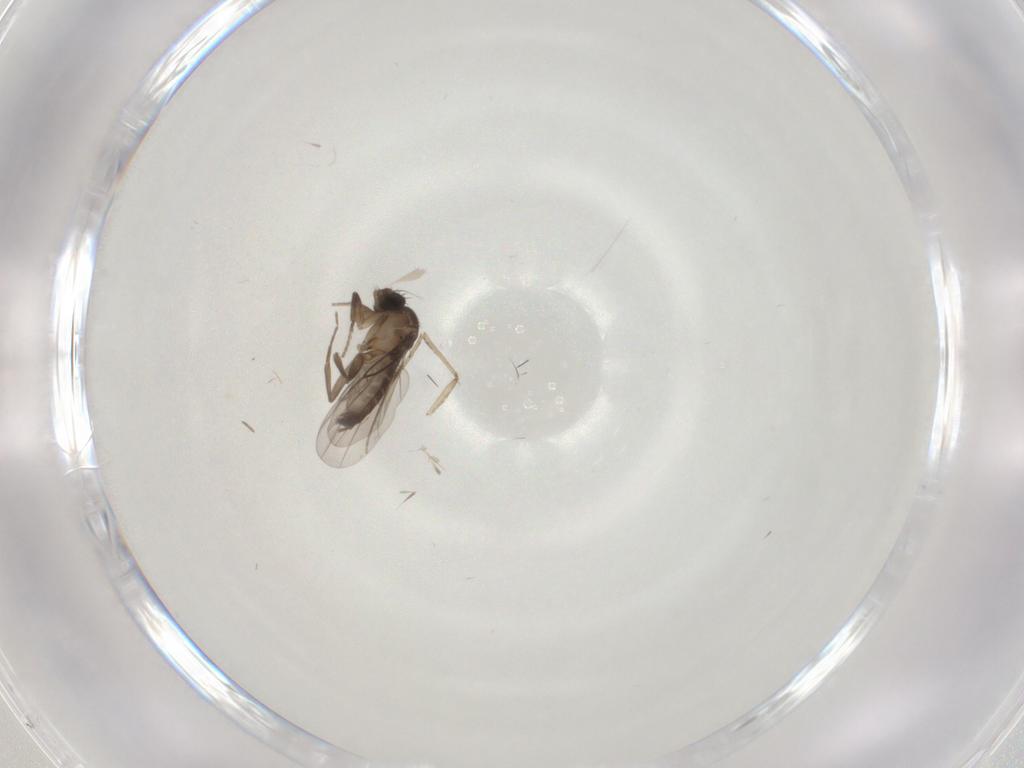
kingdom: Animalia
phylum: Arthropoda
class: Insecta
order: Diptera
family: Phoridae
